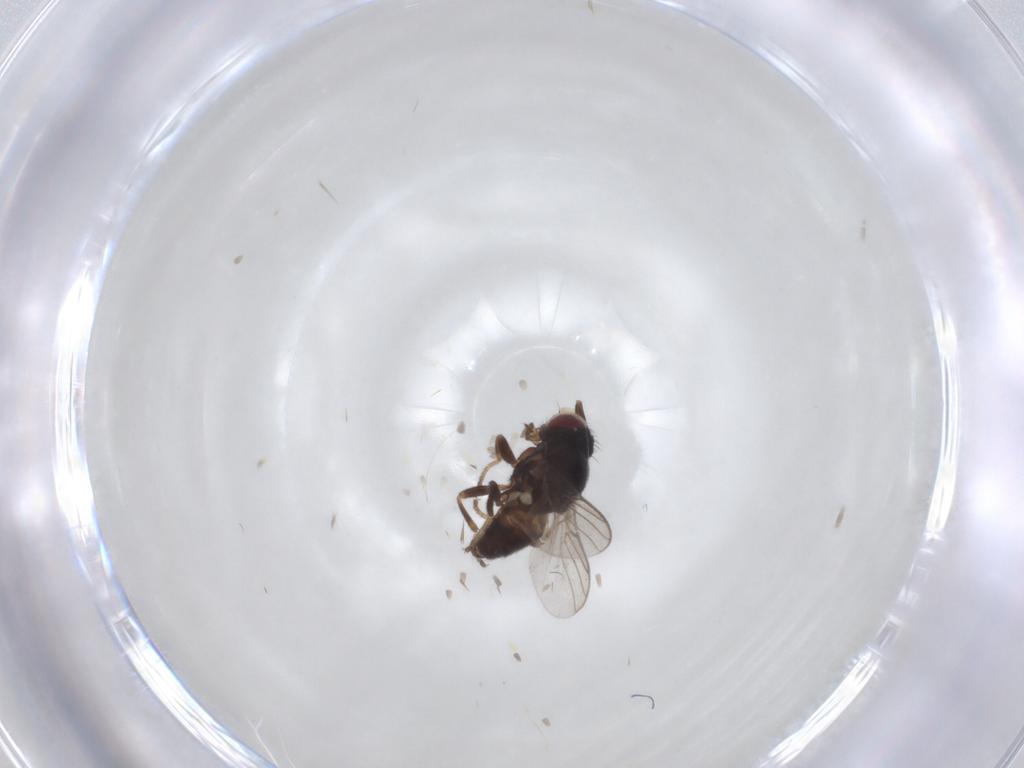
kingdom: Animalia
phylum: Arthropoda
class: Insecta
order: Diptera
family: Chloropidae
